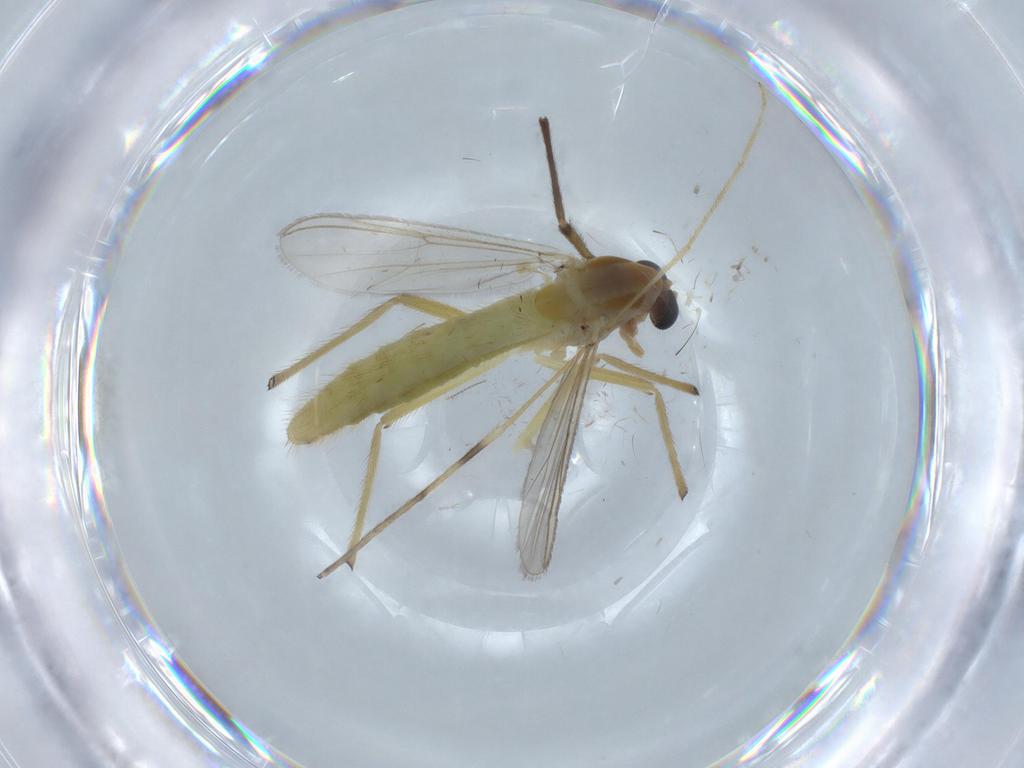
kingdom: Animalia
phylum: Arthropoda
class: Insecta
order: Diptera
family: Chironomidae
